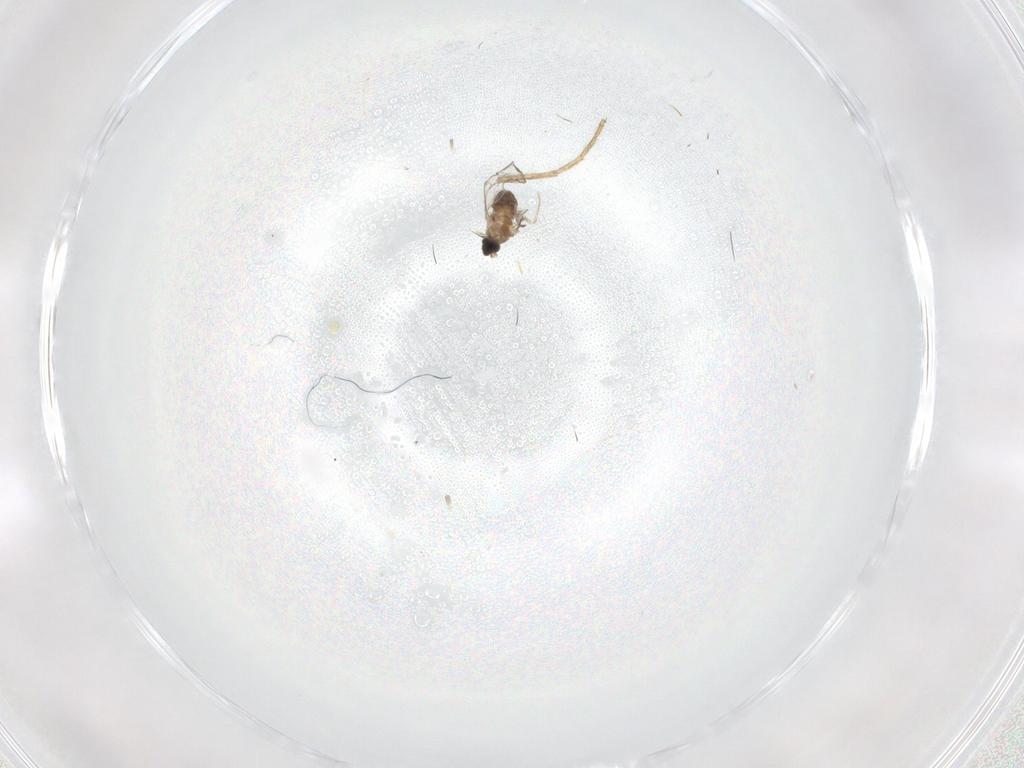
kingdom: Animalia
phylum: Arthropoda
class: Insecta
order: Diptera
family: Cecidomyiidae
